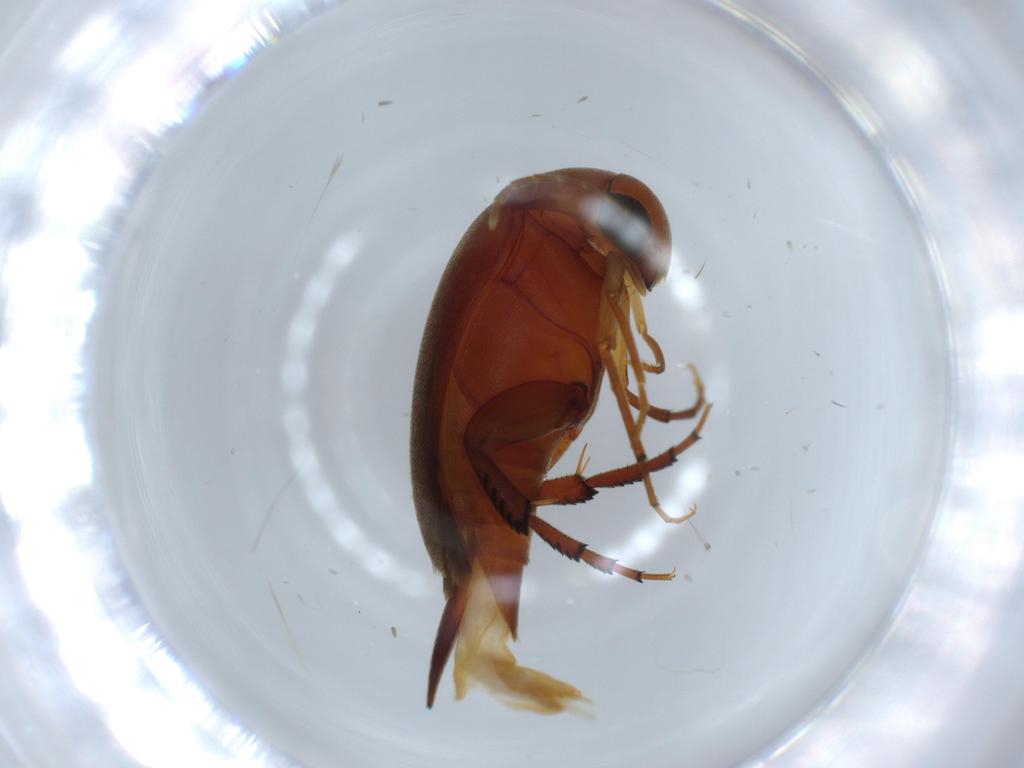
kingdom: Animalia
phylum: Arthropoda
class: Insecta
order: Coleoptera
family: Mordellidae
